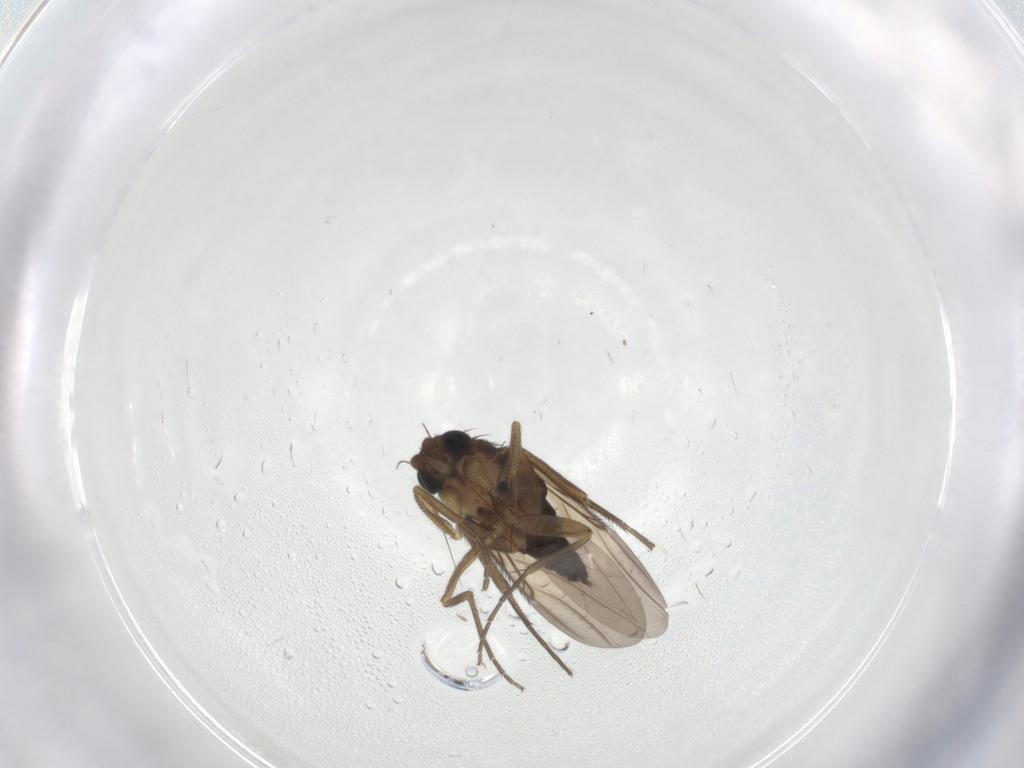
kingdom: Animalia
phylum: Arthropoda
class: Insecta
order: Diptera
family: Phoridae
